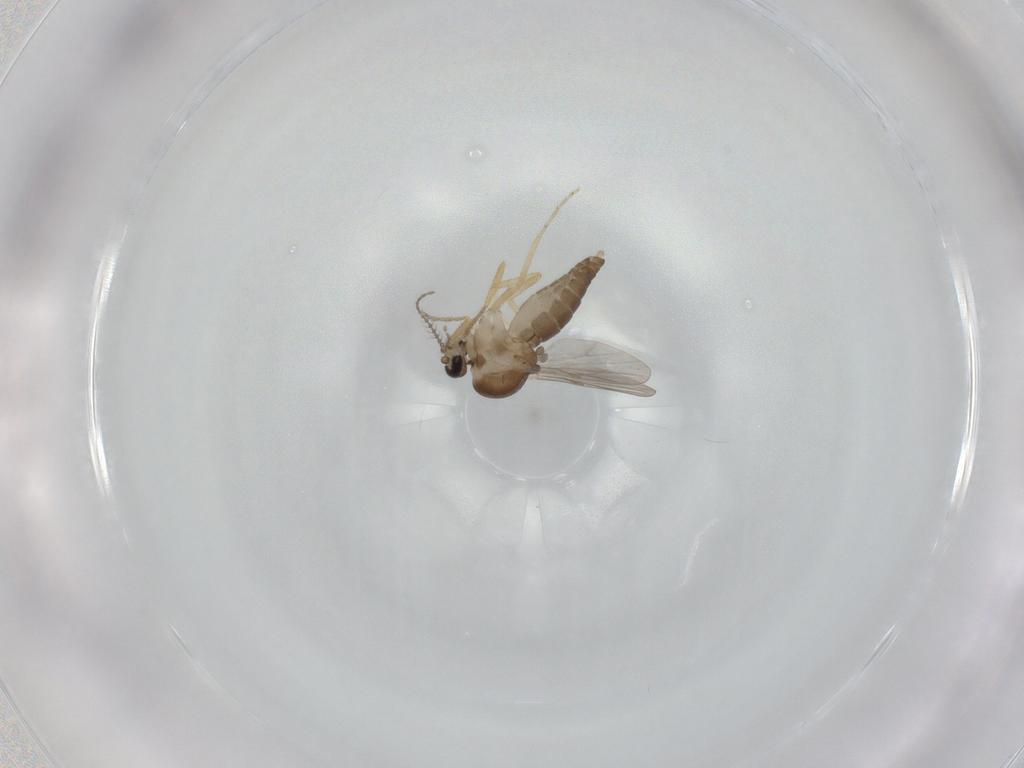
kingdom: Animalia
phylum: Arthropoda
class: Insecta
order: Diptera
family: Ceratopogonidae
